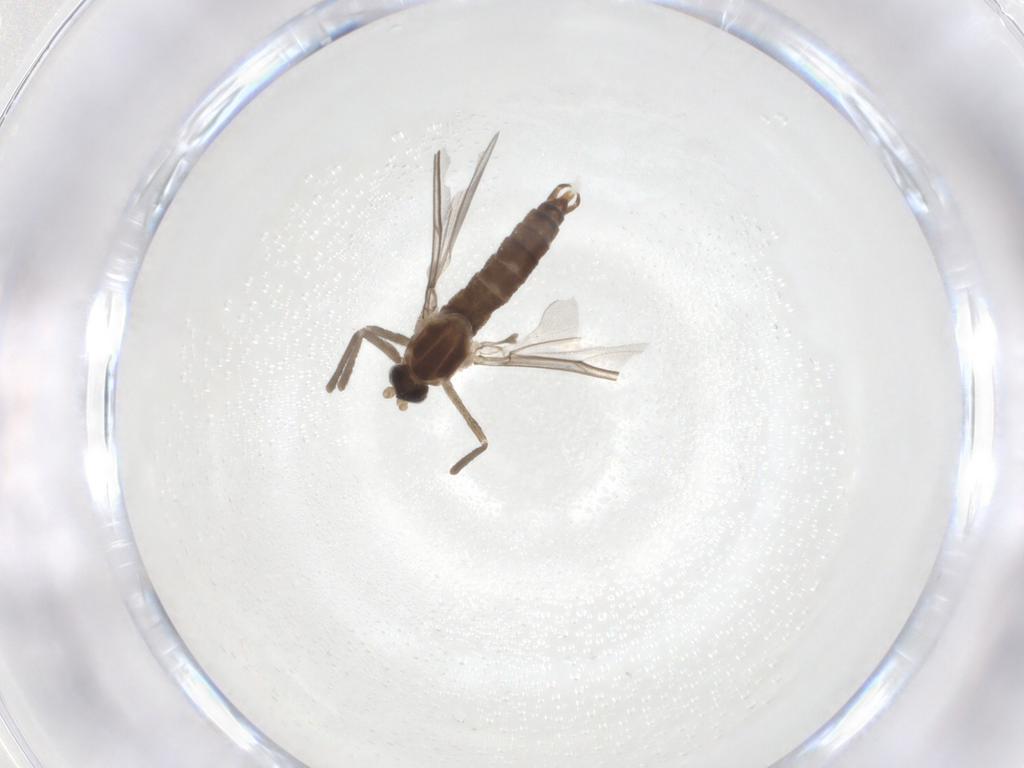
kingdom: Animalia
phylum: Arthropoda
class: Insecta
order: Diptera
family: Cecidomyiidae
